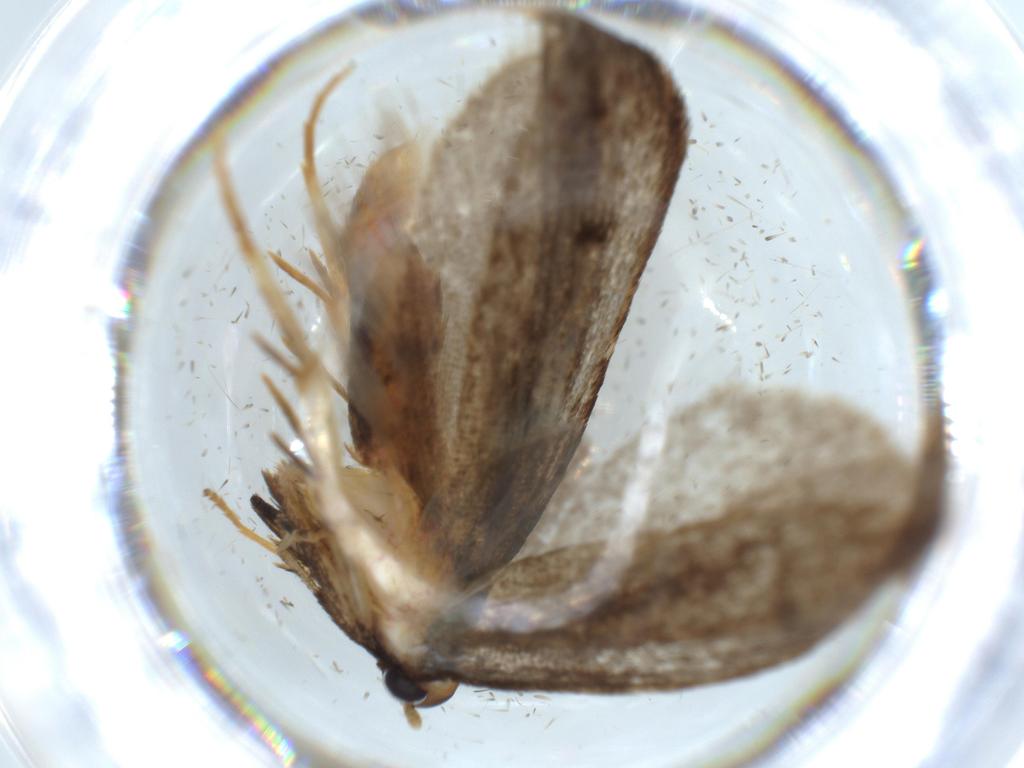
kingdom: Animalia
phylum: Arthropoda
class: Insecta
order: Lepidoptera
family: Lecithoceridae
